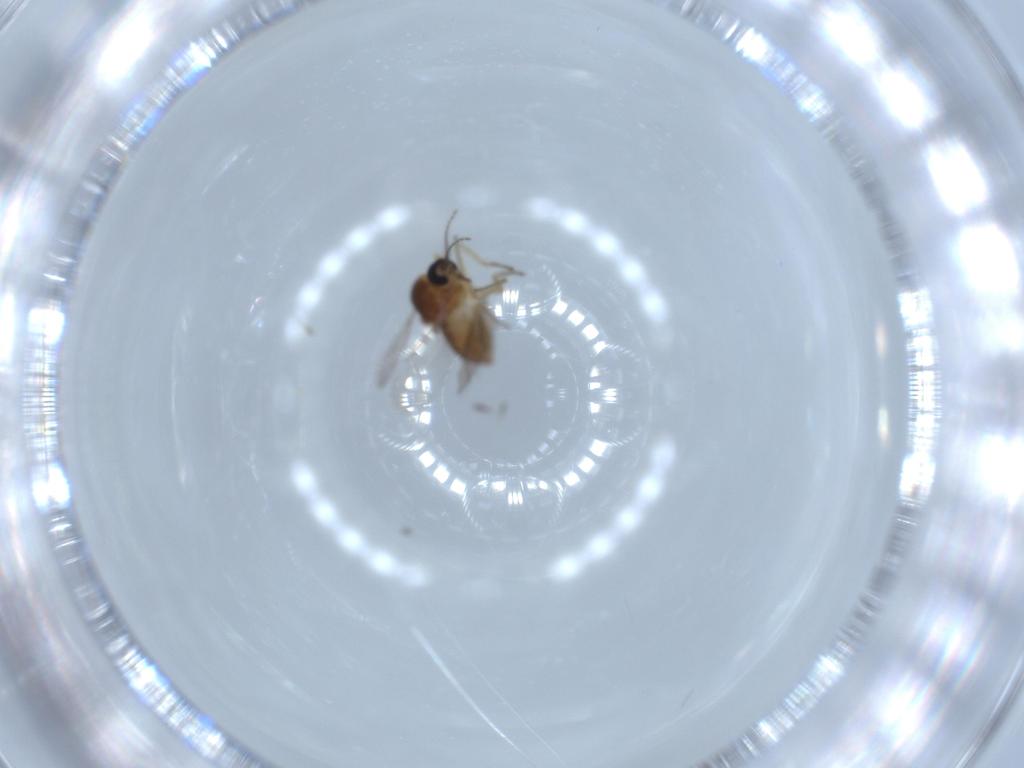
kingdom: Animalia
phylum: Arthropoda
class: Insecta
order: Diptera
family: Ceratopogonidae
